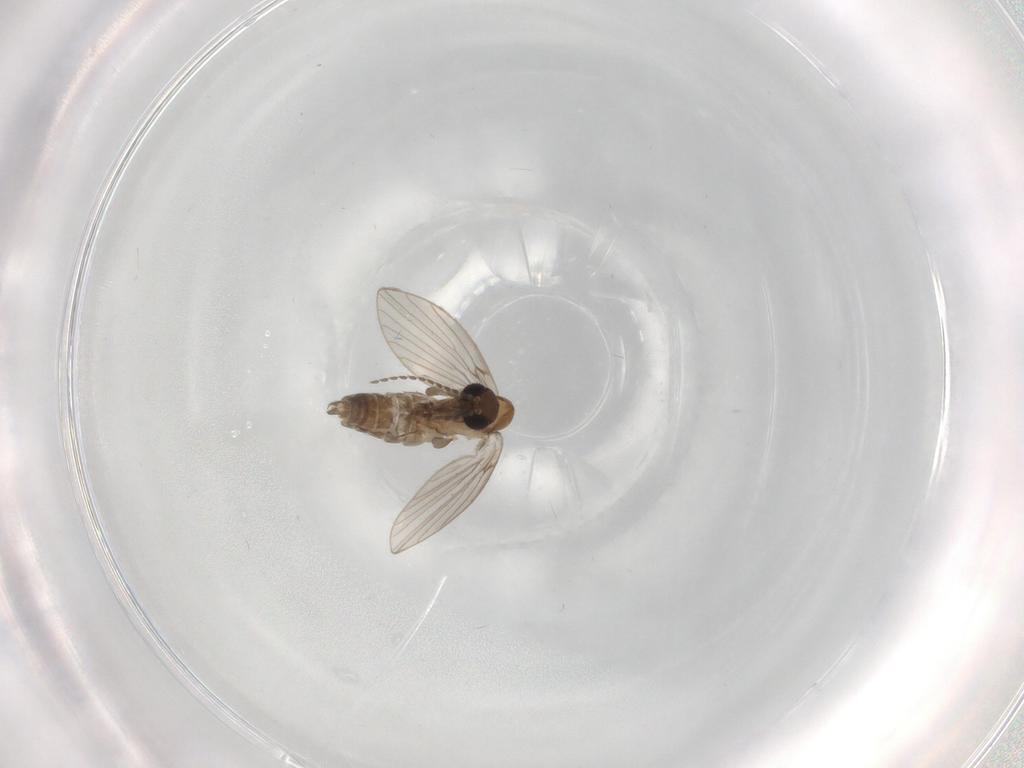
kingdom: Animalia
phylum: Arthropoda
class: Insecta
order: Diptera
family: Psychodidae
